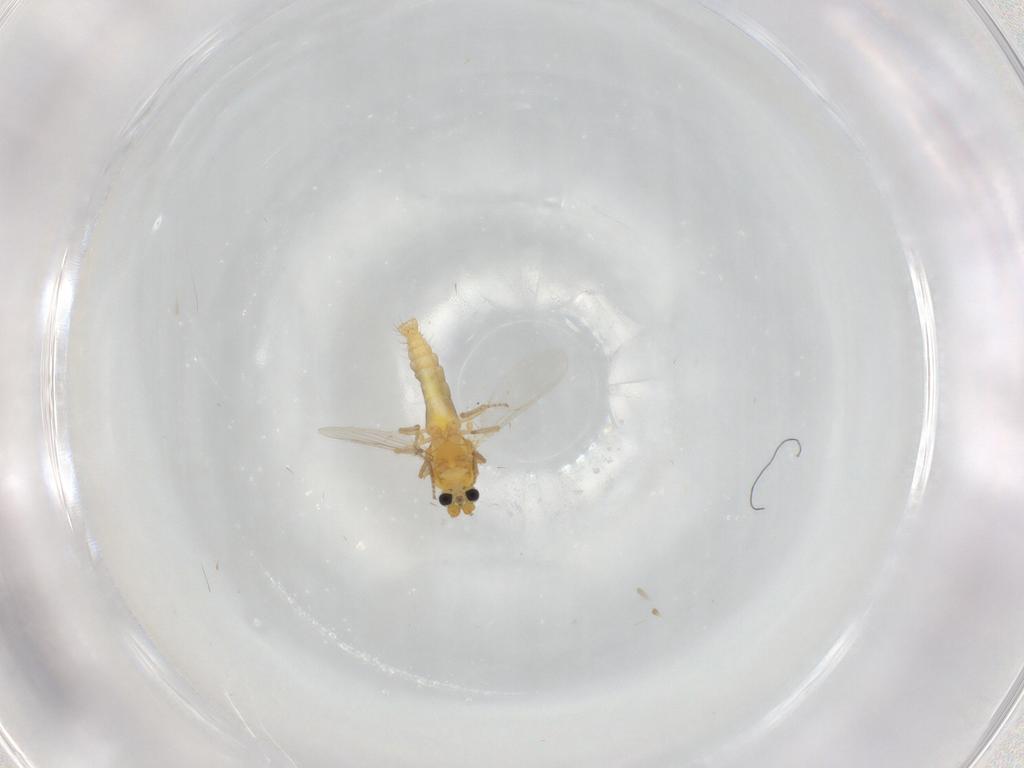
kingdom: Animalia
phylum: Arthropoda
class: Insecta
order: Diptera
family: Ceratopogonidae
